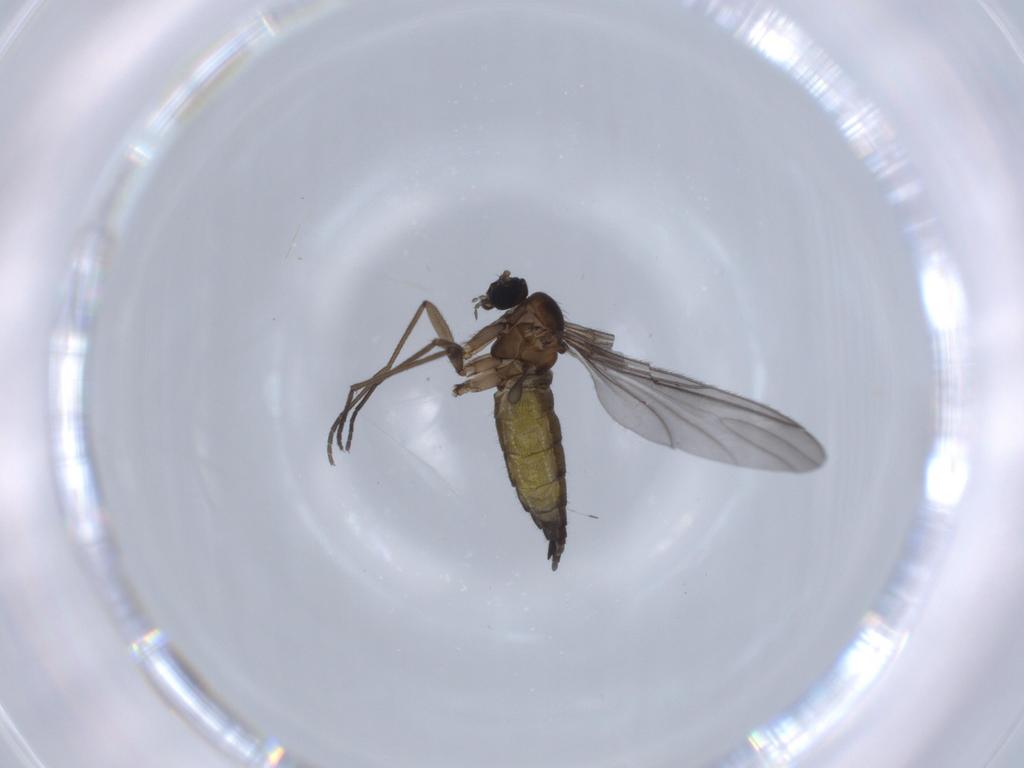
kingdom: Animalia
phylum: Arthropoda
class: Insecta
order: Diptera
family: Sciaridae
